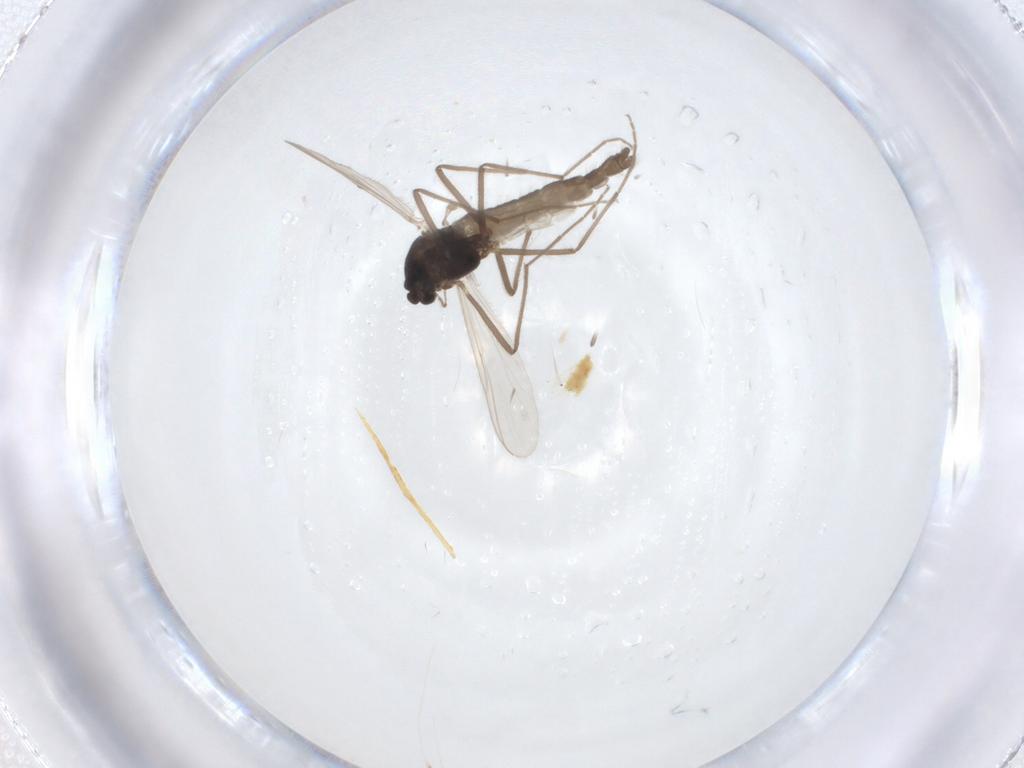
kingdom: Animalia
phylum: Arthropoda
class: Insecta
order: Diptera
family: Chironomidae
